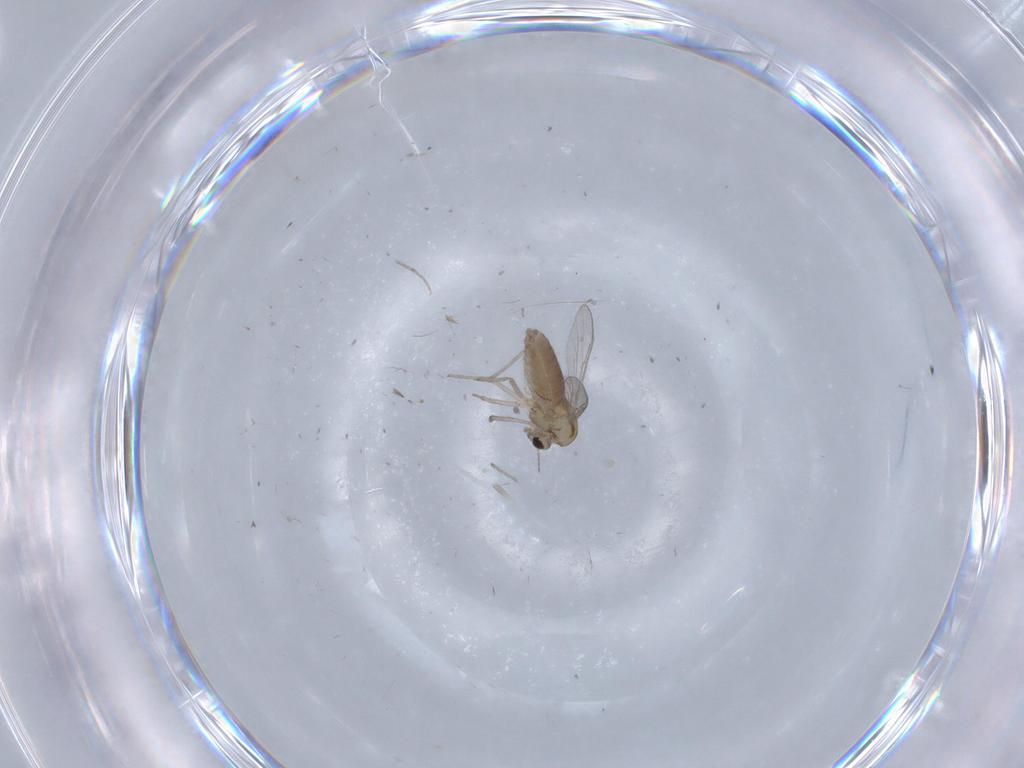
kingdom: Animalia
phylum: Arthropoda
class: Insecta
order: Diptera
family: Chironomidae
